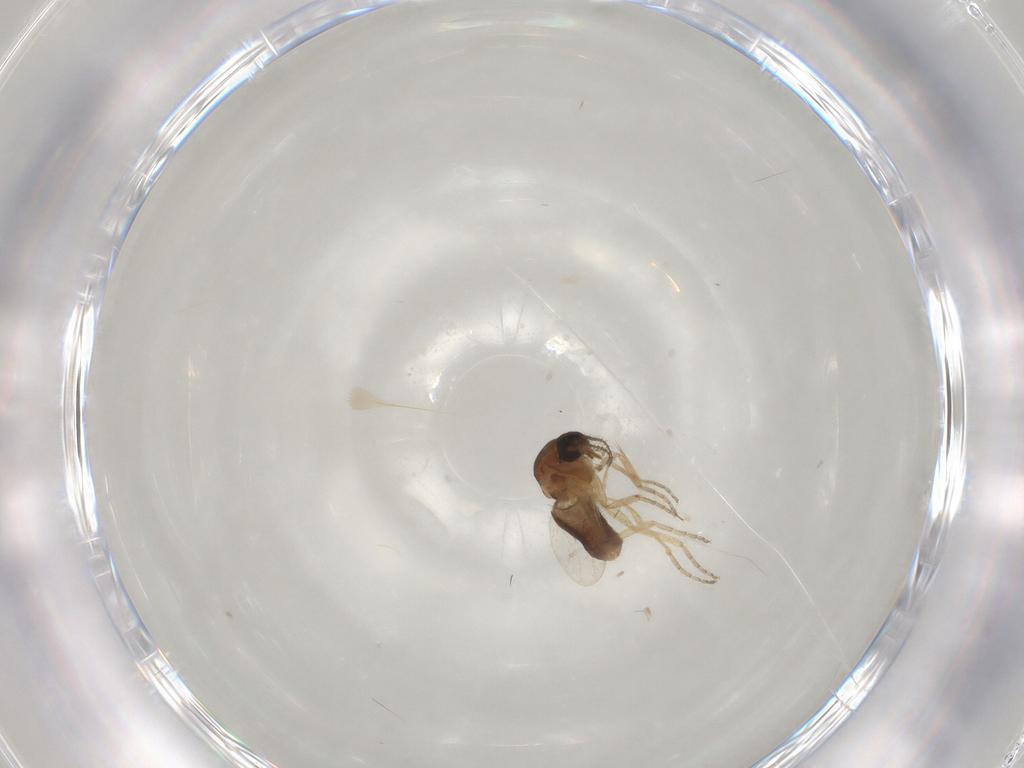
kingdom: Animalia
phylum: Arthropoda
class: Insecta
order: Diptera
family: Ceratopogonidae
